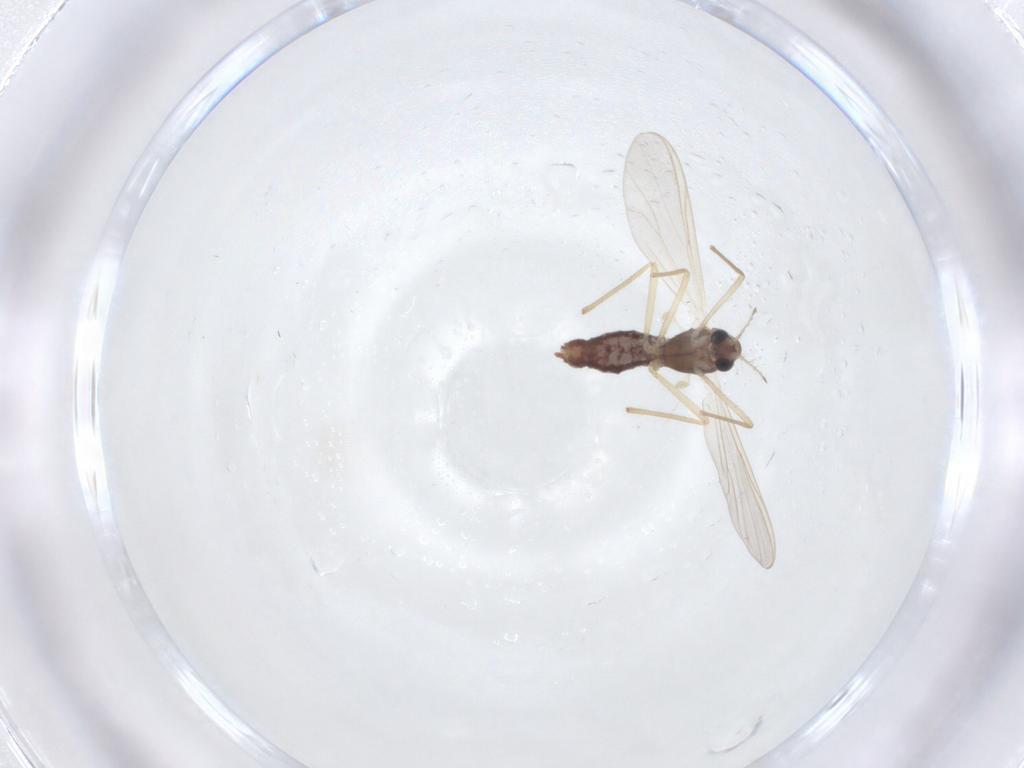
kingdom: Animalia
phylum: Arthropoda
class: Insecta
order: Diptera
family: Chironomidae
